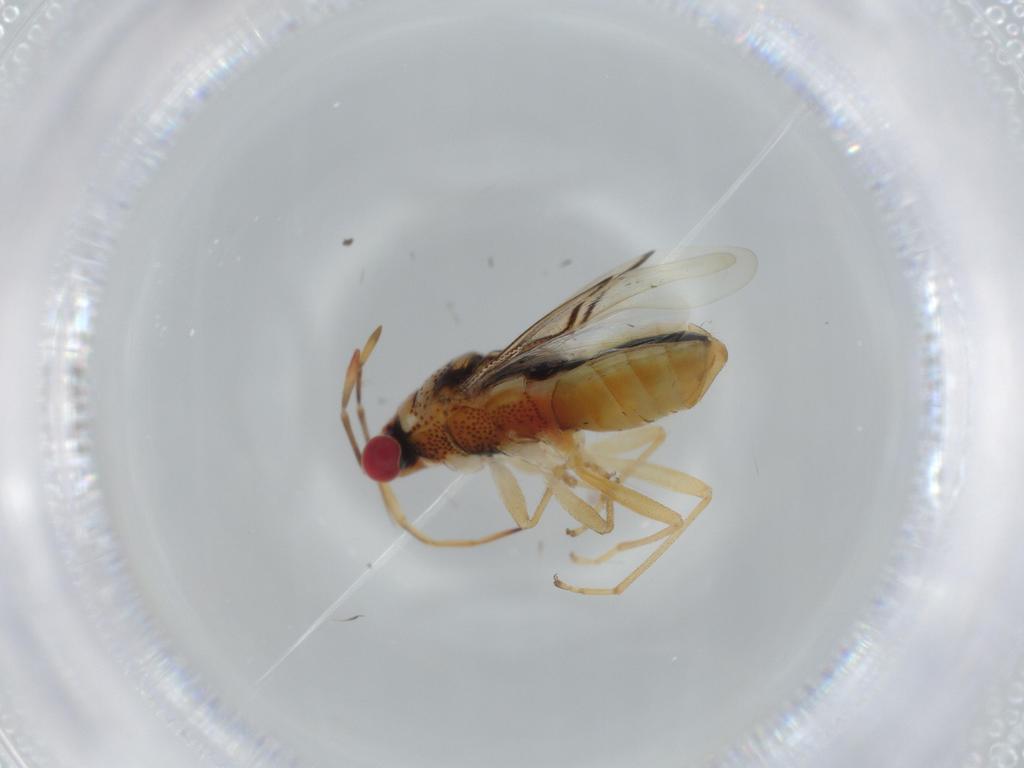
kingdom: Animalia
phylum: Arthropoda
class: Insecta
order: Hemiptera
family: Geocoridae
